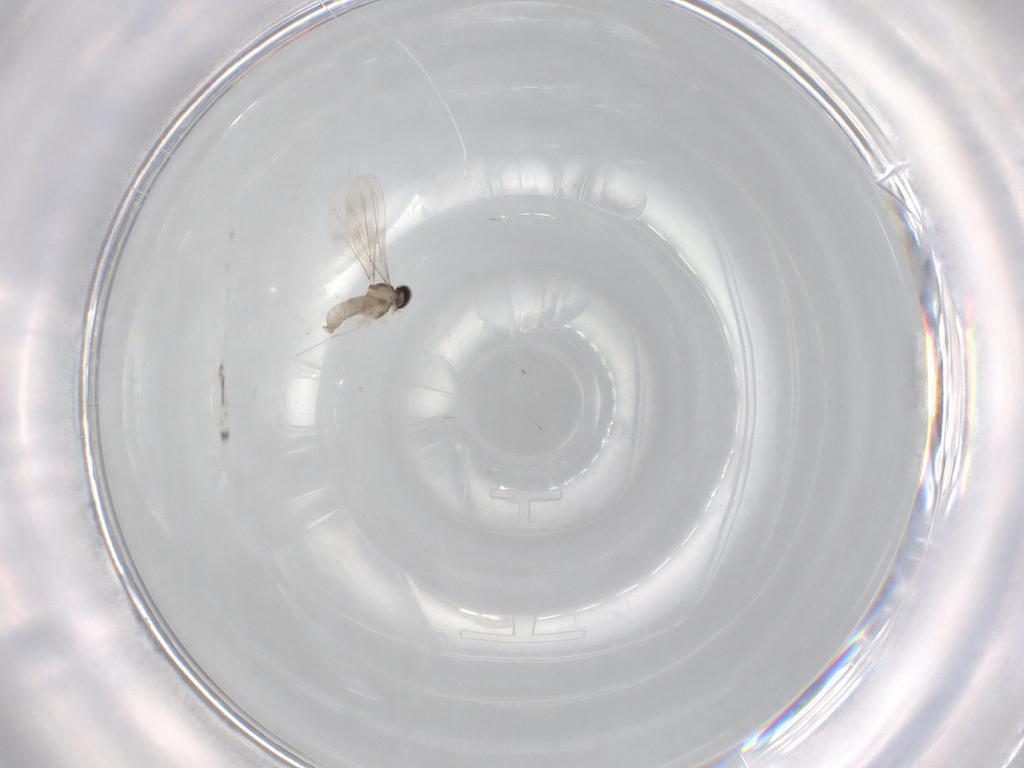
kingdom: Animalia
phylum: Arthropoda
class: Insecta
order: Diptera
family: Cecidomyiidae
